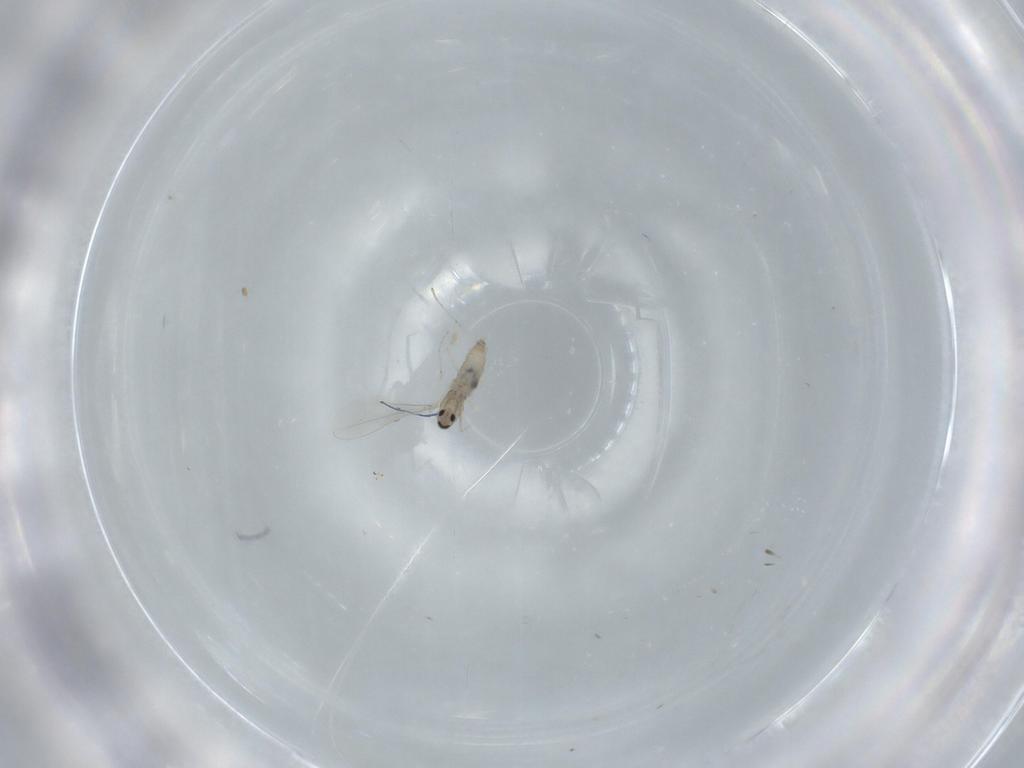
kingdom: Animalia
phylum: Arthropoda
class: Insecta
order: Diptera
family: Cecidomyiidae
